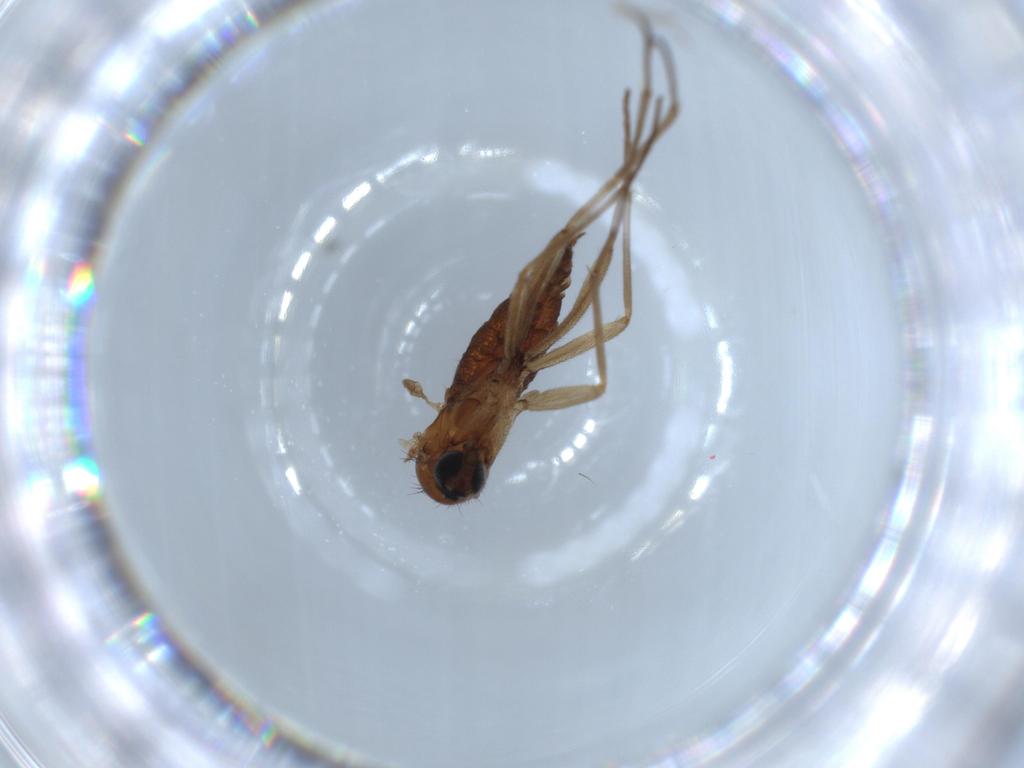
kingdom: Animalia
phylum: Arthropoda
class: Insecta
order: Diptera
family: Sciaridae
